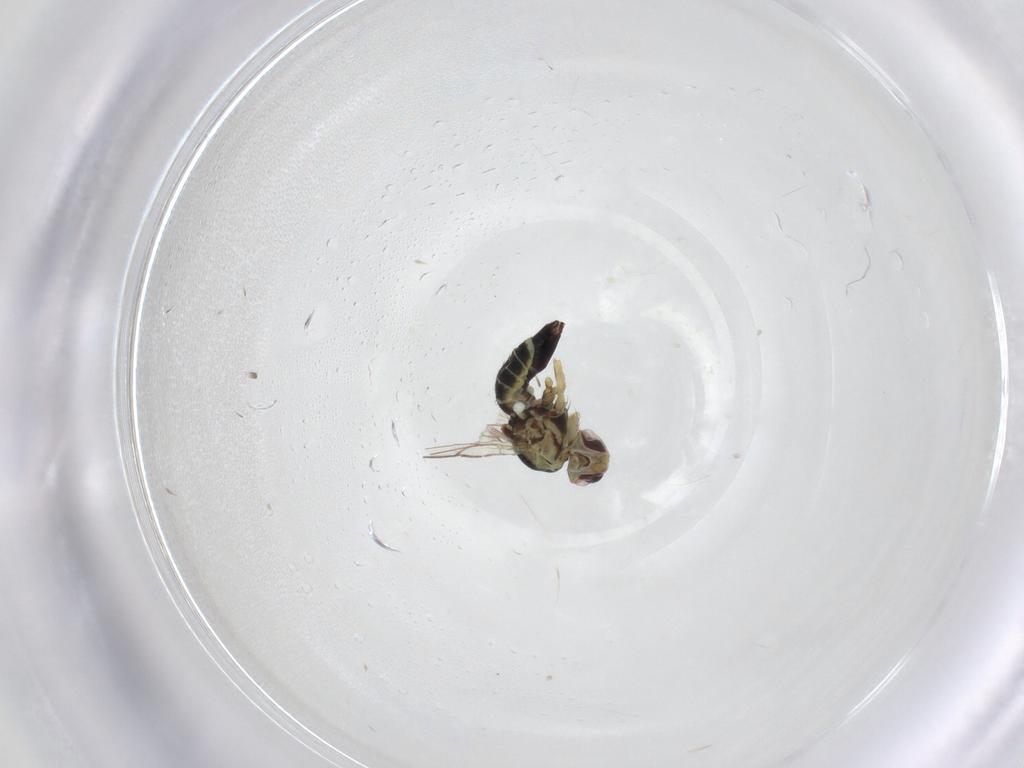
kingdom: Animalia
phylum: Arthropoda
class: Insecta
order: Diptera
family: Agromyzidae
